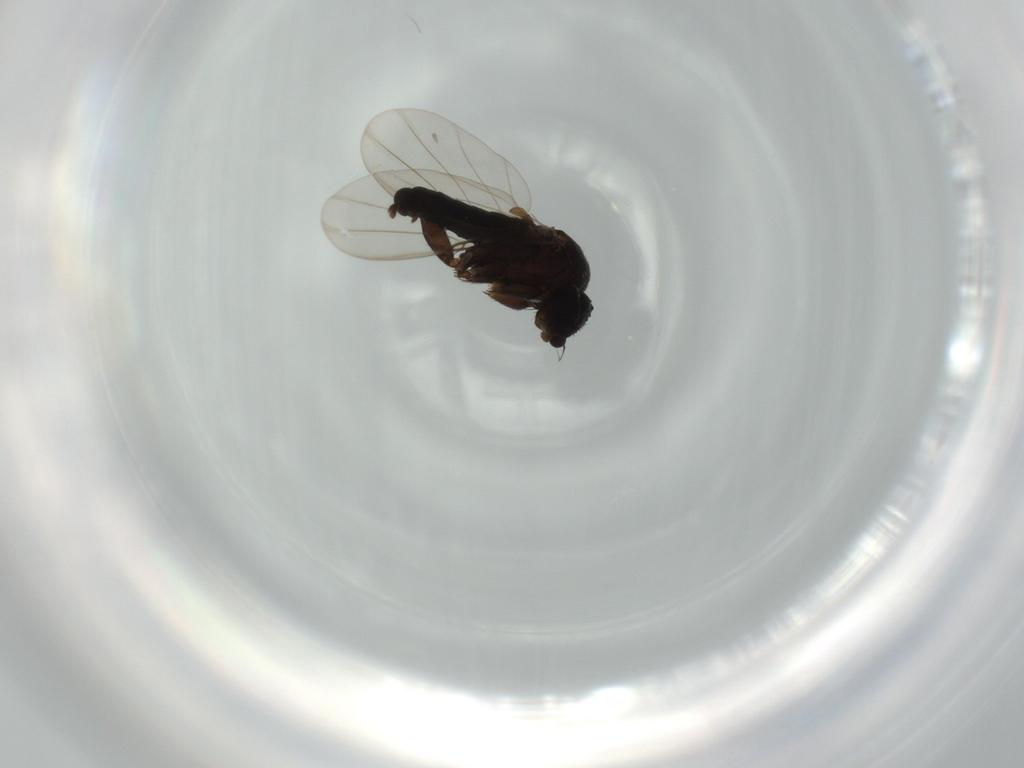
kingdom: Animalia
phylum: Arthropoda
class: Insecta
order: Diptera
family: Phoridae
